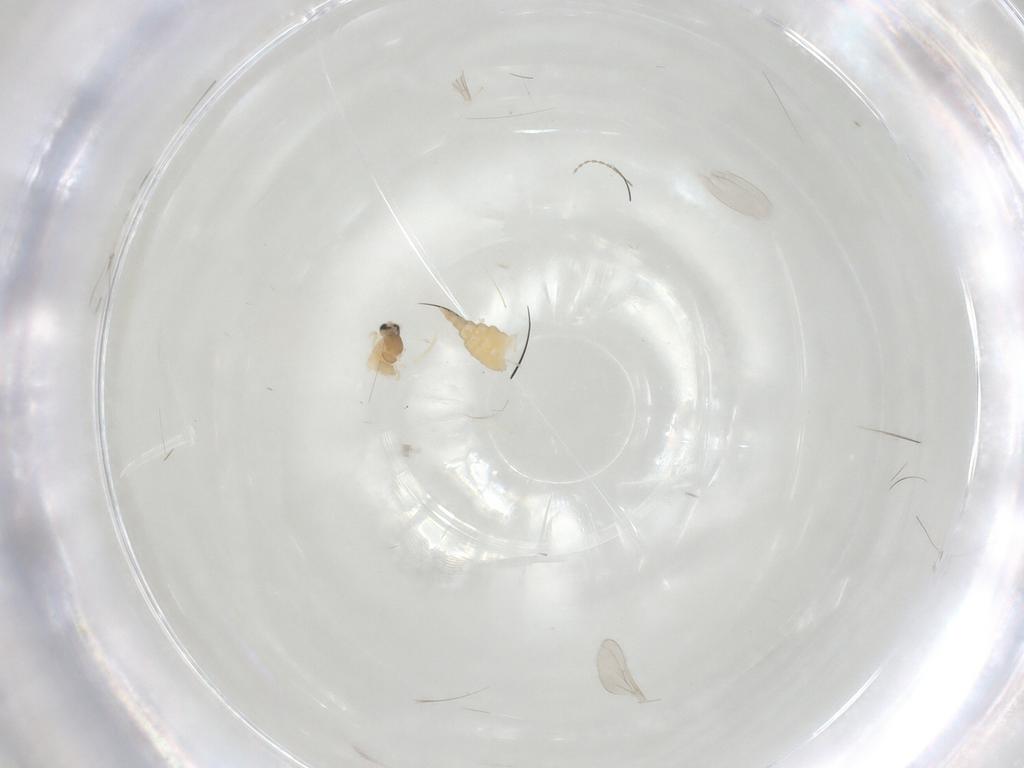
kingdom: Animalia
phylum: Arthropoda
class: Insecta
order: Diptera
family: Cecidomyiidae
